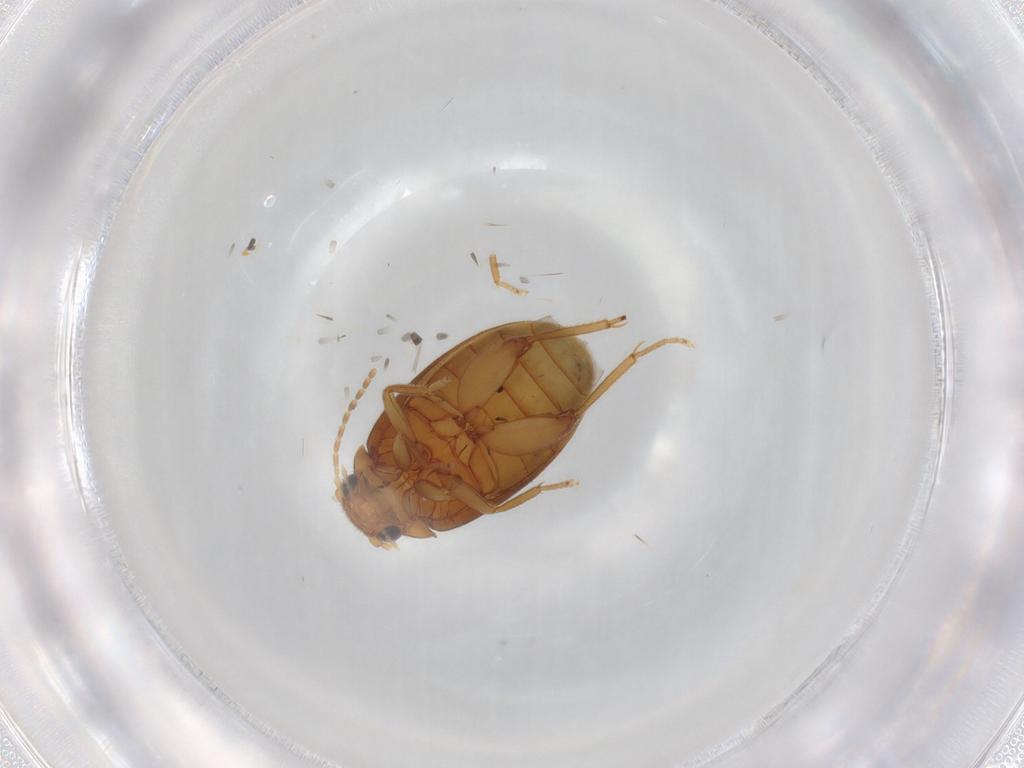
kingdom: Animalia
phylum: Arthropoda
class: Insecta
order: Coleoptera
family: Scirtidae
